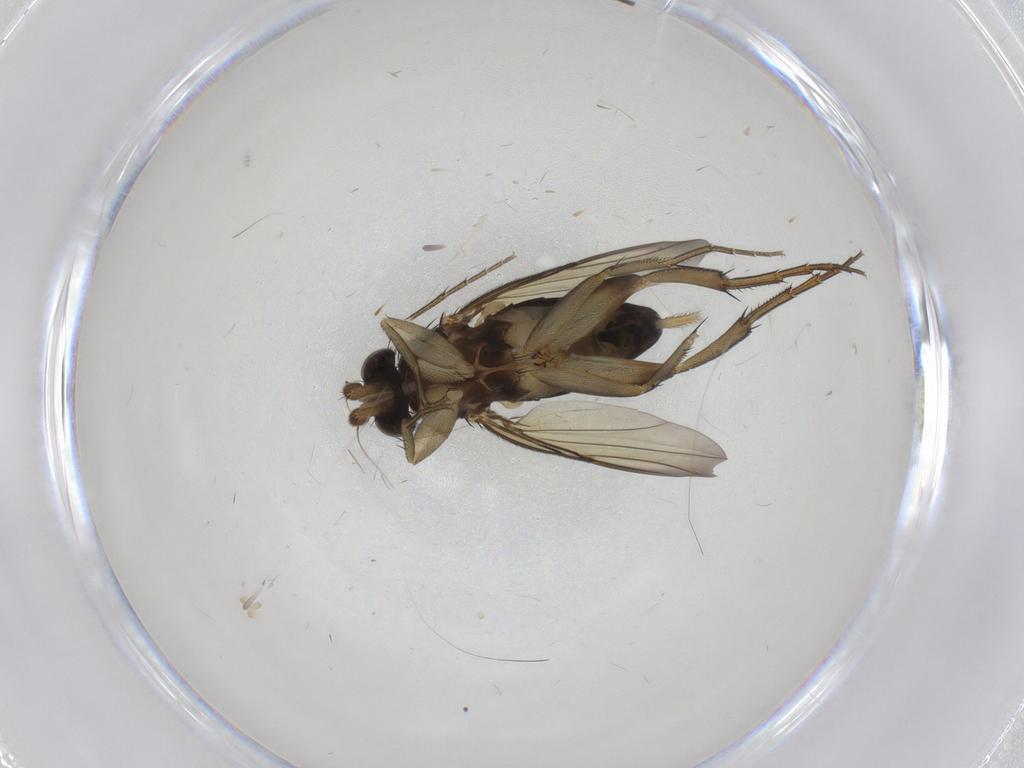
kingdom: Animalia
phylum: Arthropoda
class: Insecta
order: Diptera
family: Phoridae
